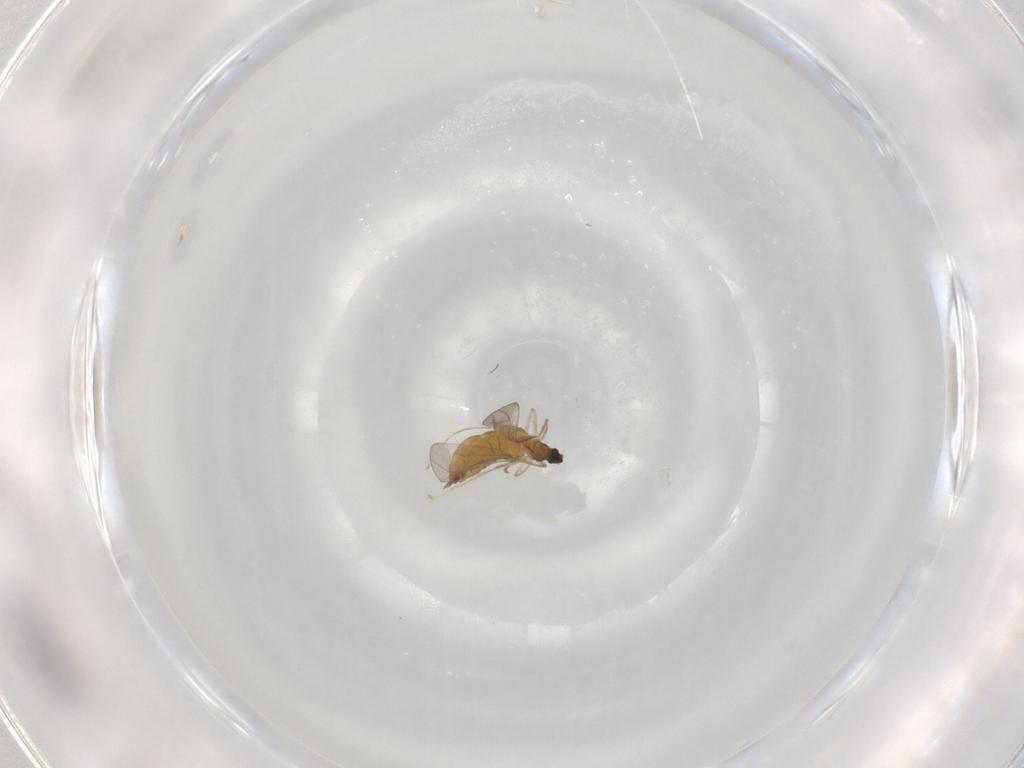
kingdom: Animalia
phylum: Arthropoda
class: Insecta
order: Diptera
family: Cecidomyiidae
